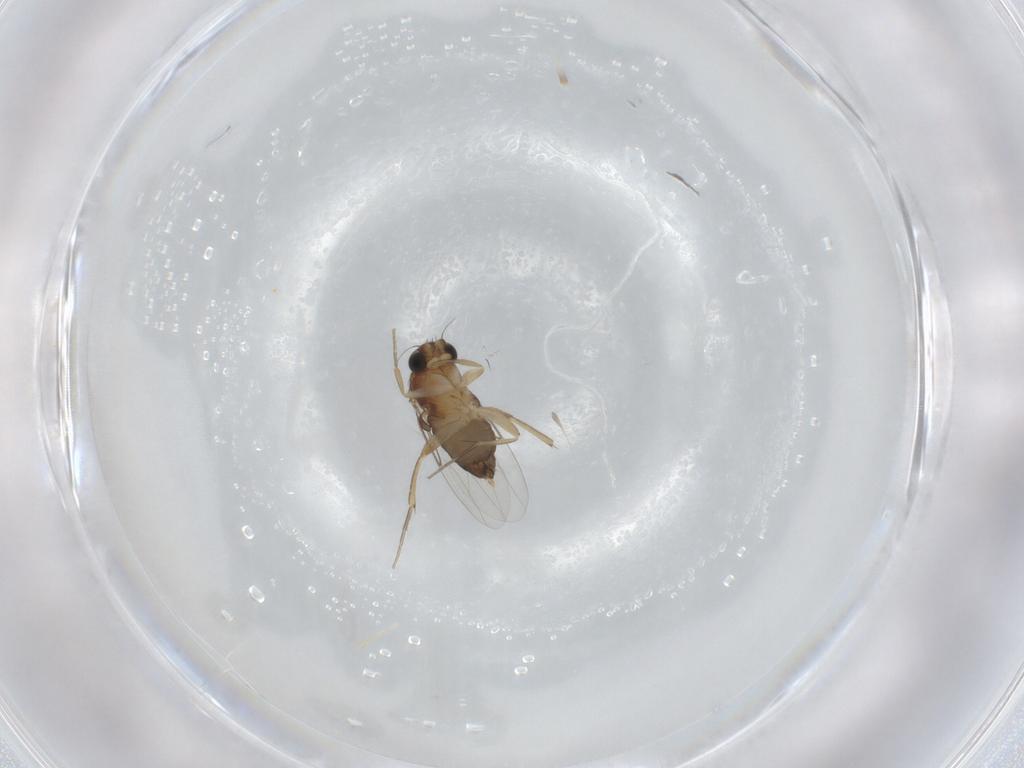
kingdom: Animalia
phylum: Arthropoda
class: Insecta
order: Diptera
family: Phoridae
